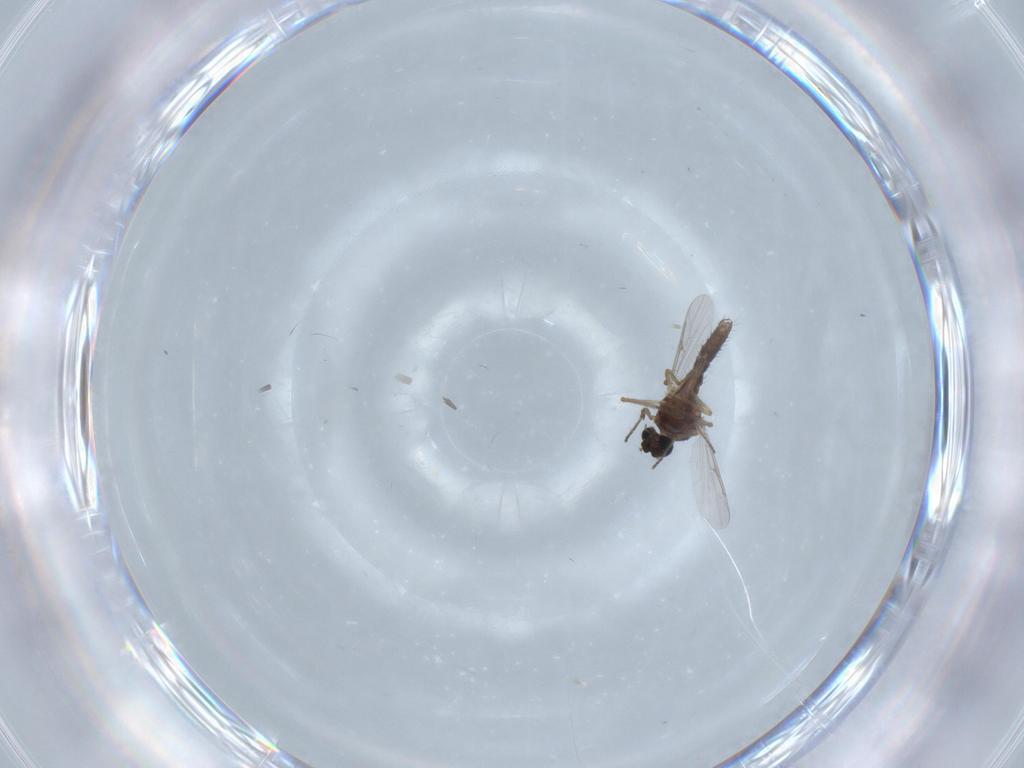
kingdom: Animalia
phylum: Arthropoda
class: Insecta
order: Diptera
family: Ceratopogonidae
